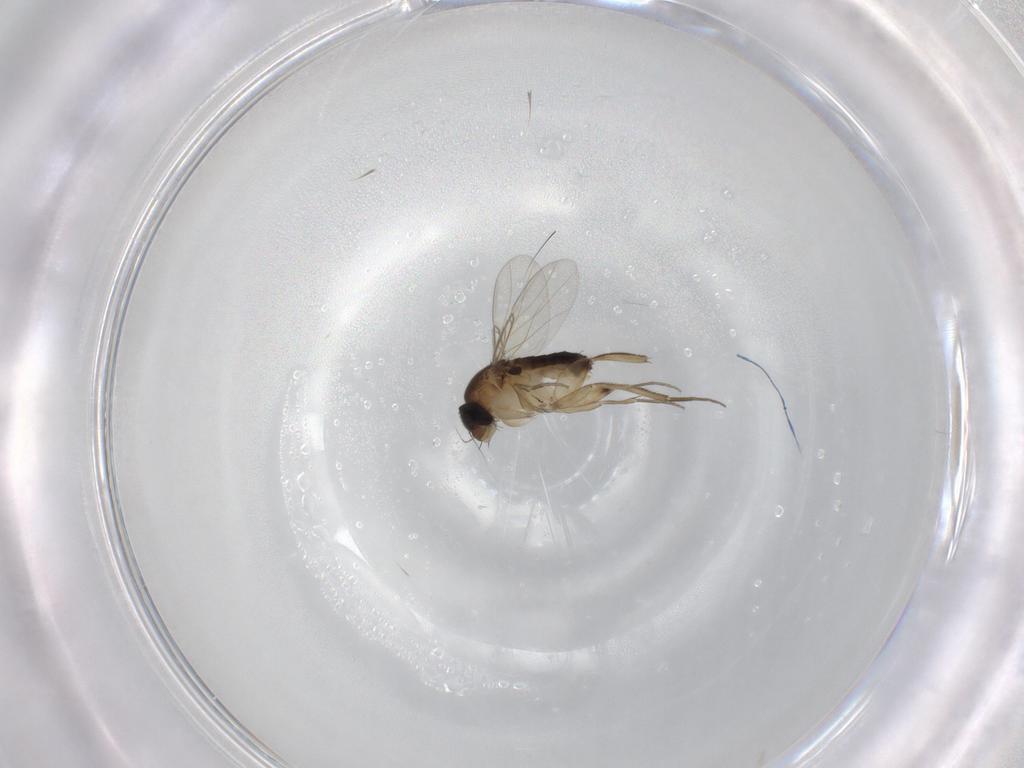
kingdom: Animalia
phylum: Arthropoda
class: Insecta
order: Diptera
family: Phoridae
